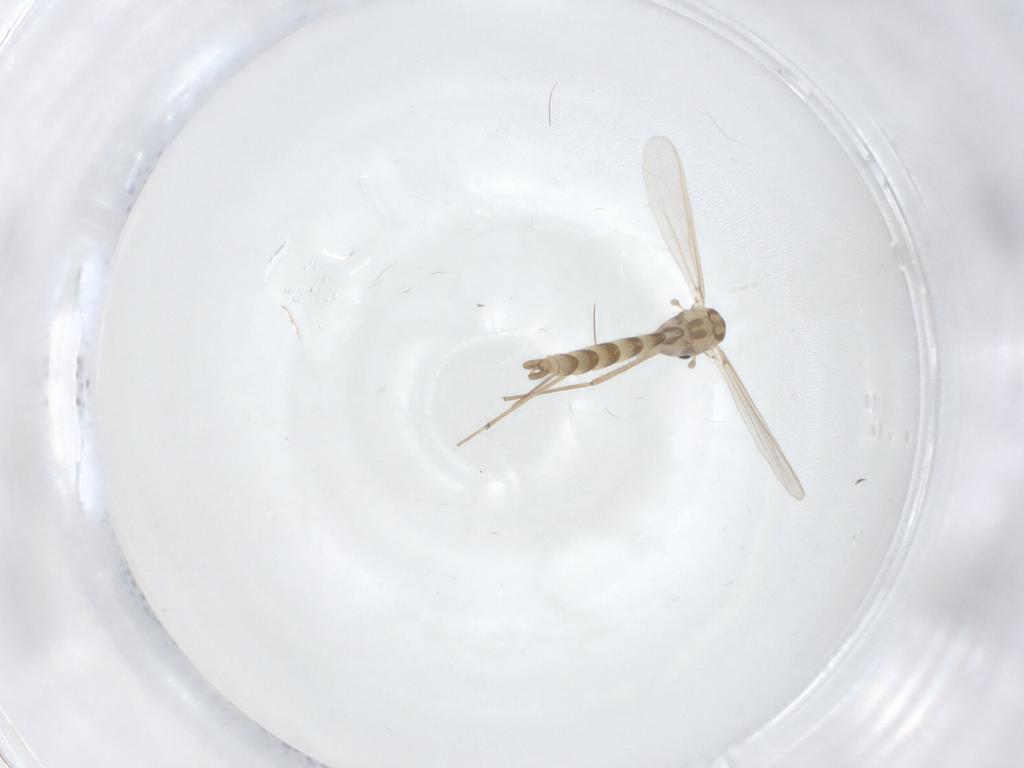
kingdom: Animalia
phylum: Arthropoda
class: Insecta
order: Diptera
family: Chironomidae
